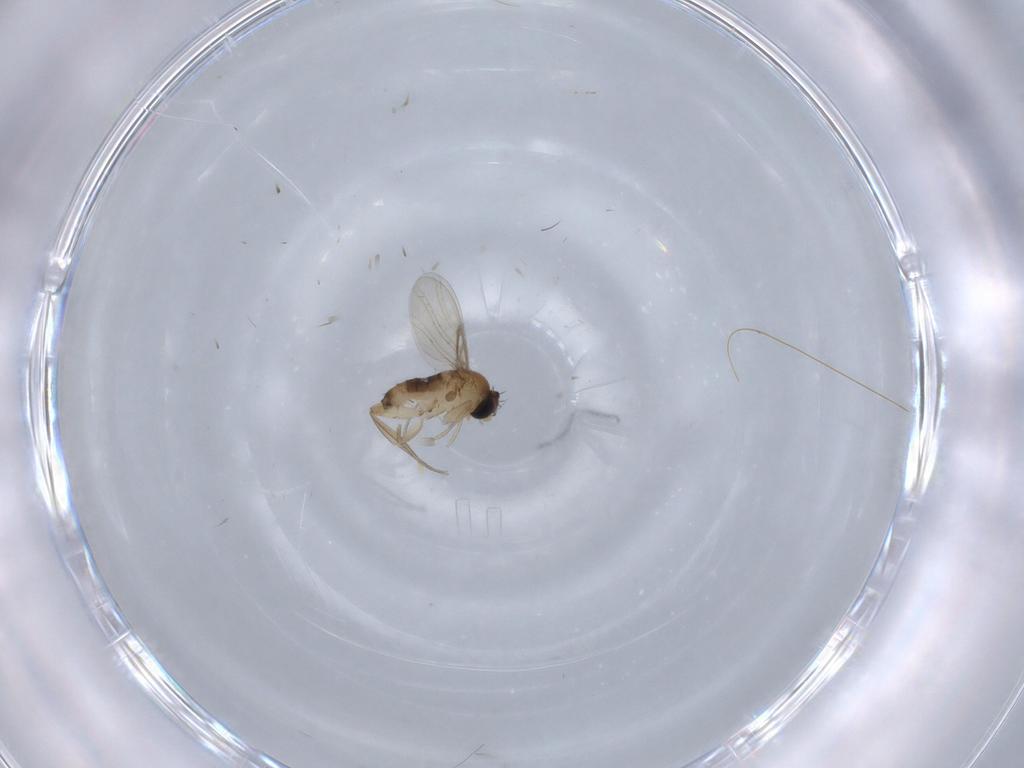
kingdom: Animalia
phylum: Arthropoda
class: Insecta
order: Diptera
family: Phoridae
